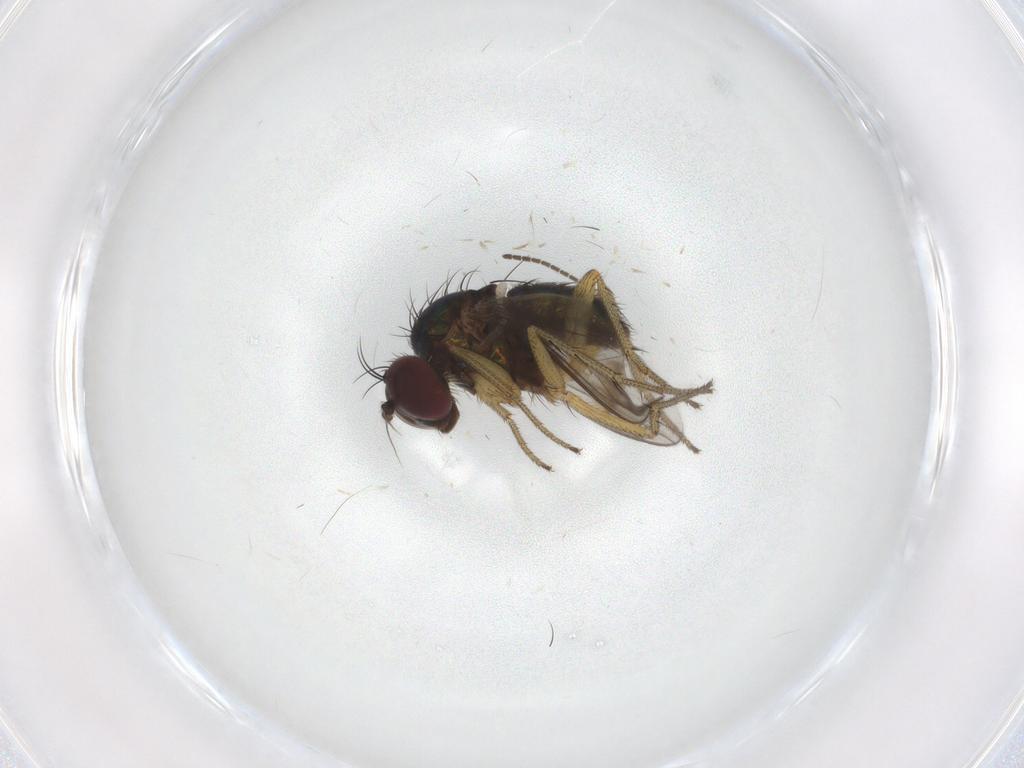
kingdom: Animalia
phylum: Arthropoda
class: Insecta
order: Diptera
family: Dolichopodidae
